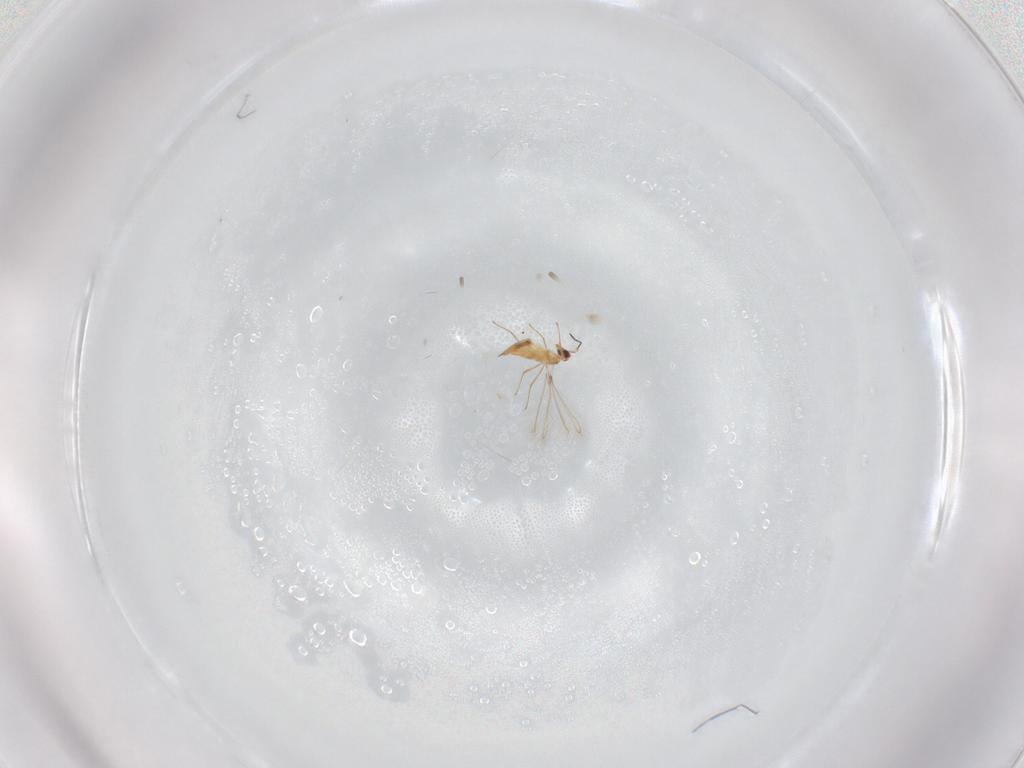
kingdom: Animalia
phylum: Arthropoda
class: Insecta
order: Hymenoptera
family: Mymaridae
